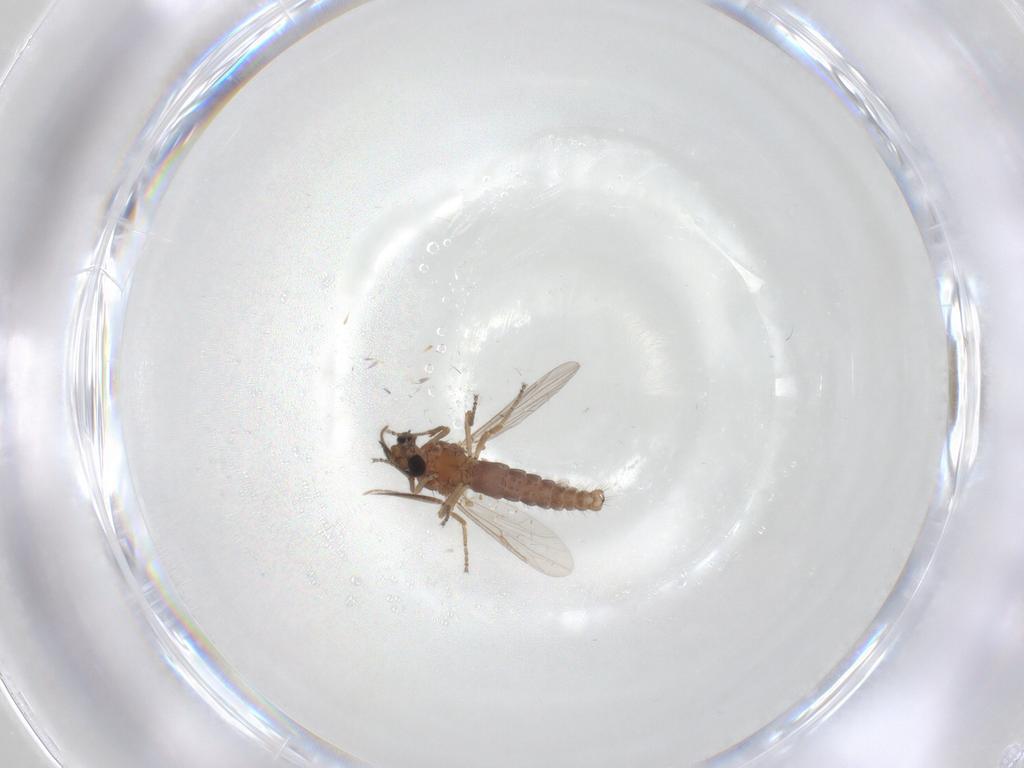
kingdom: Animalia
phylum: Arthropoda
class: Insecta
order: Diptera
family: Ceratopogonidae
